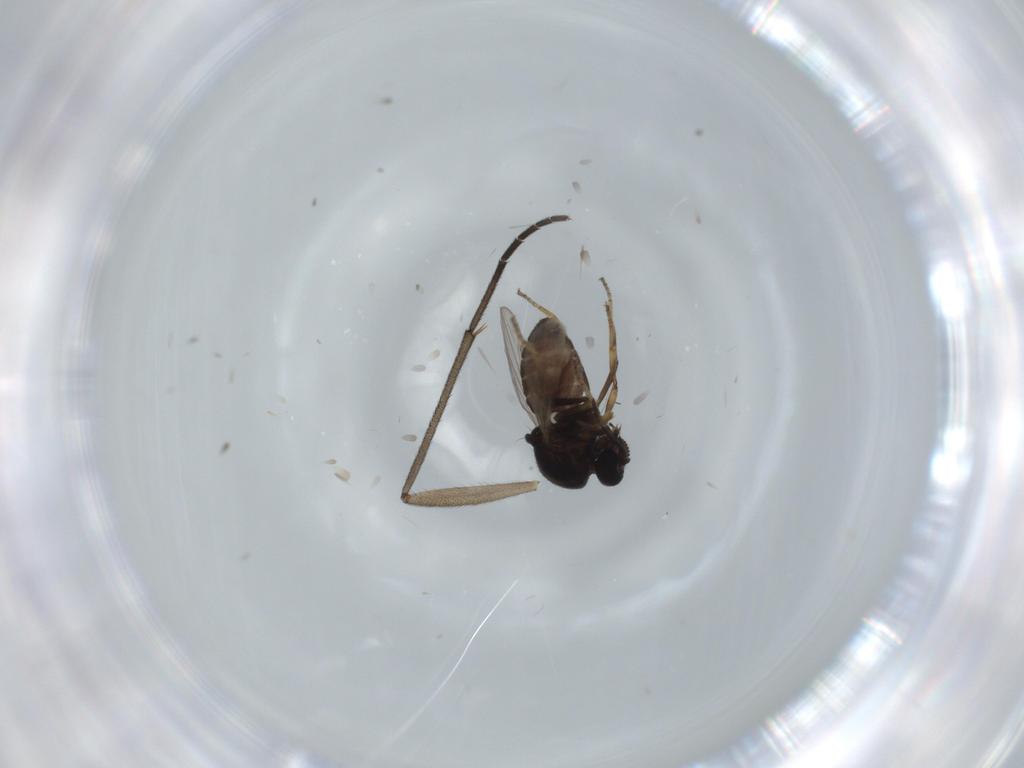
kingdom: Animalia
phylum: Arthropoda
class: Insecta
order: Diptera
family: Ceratopogonidae
